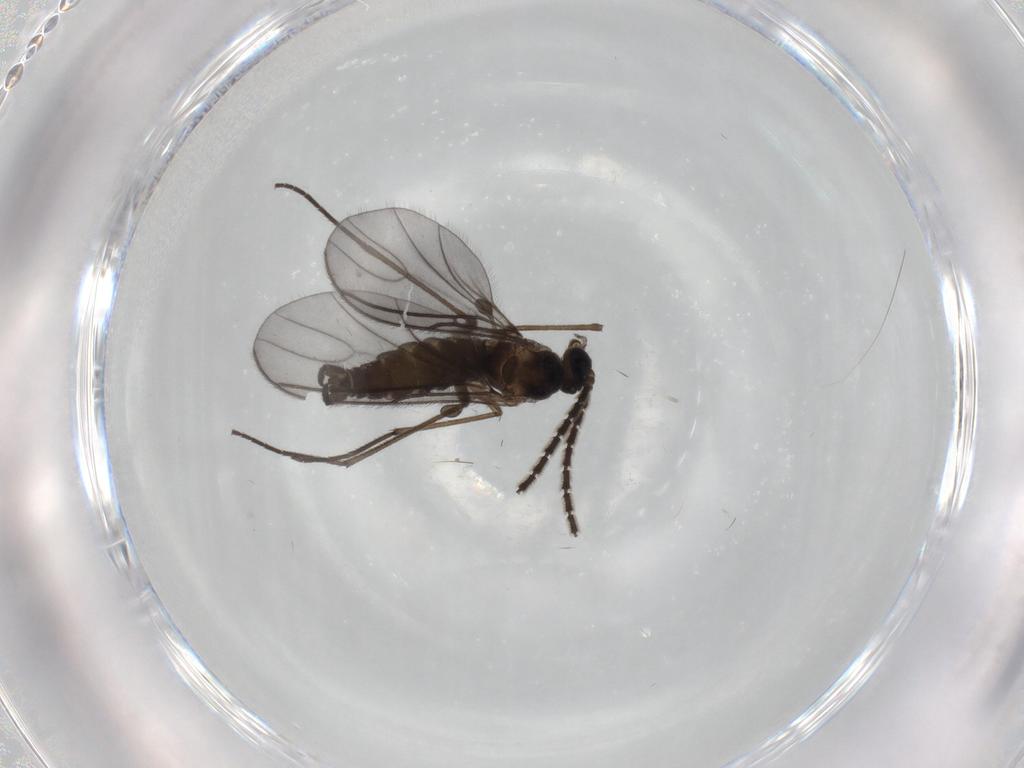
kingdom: Animalia
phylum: Arthropoda
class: Insecta
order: Diptera
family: Sciaridae
